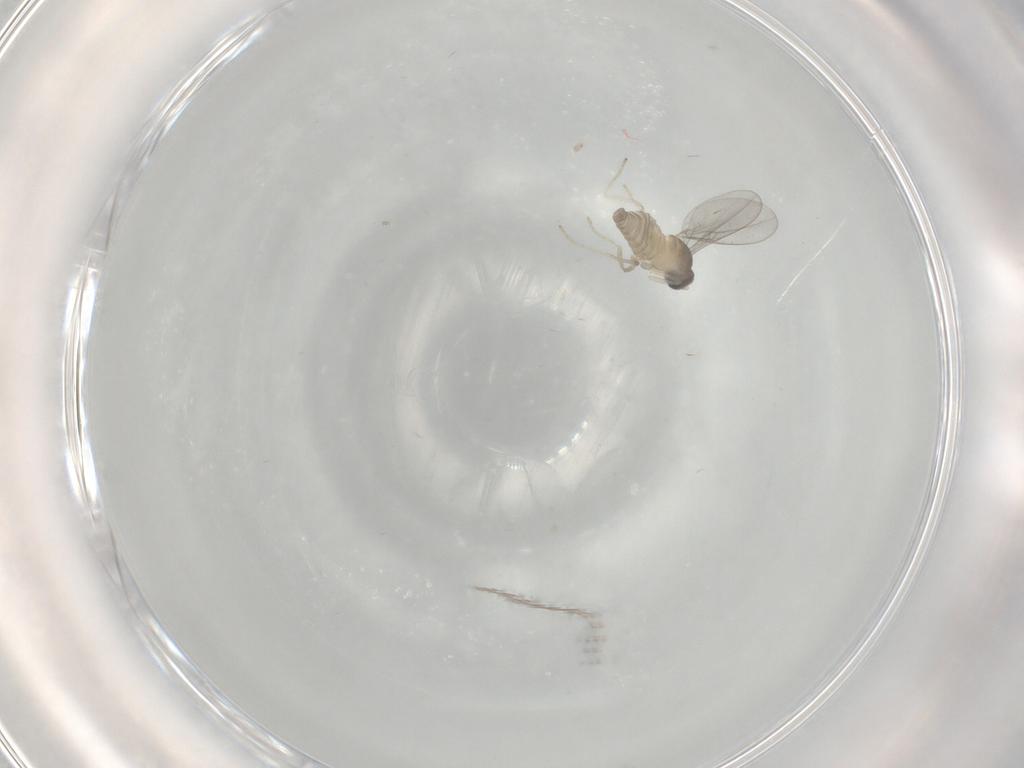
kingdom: Animalia
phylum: Arthropoda
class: Insecta
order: Diptera
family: Cecidomyiidae
